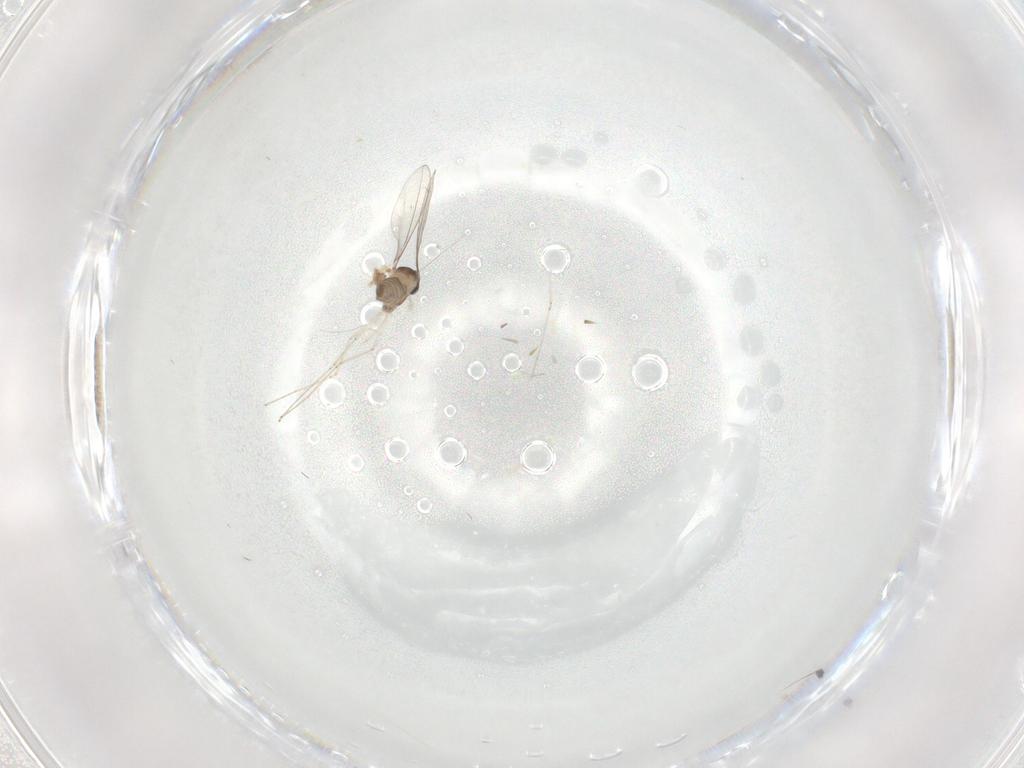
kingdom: Animalia
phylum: Arthropoda
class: Insecta
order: Diptera
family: Cecidomyiidae
